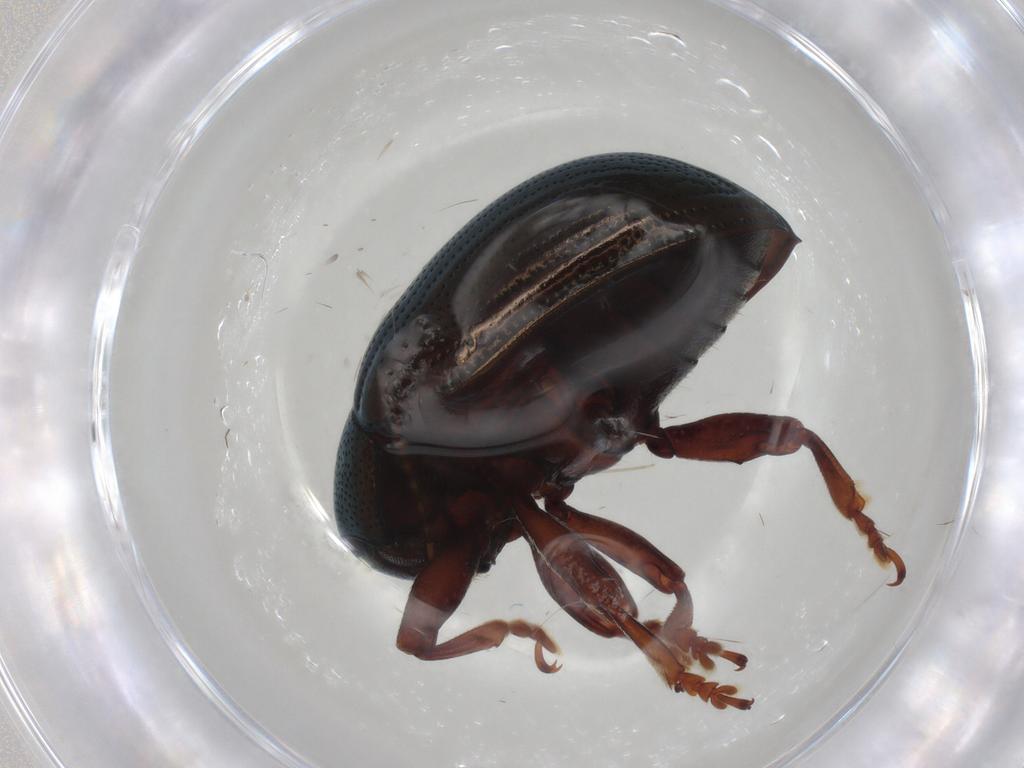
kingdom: Animalia
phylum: Arthropoda
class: Insecta
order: Coleoptera
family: Chrysomelidae
